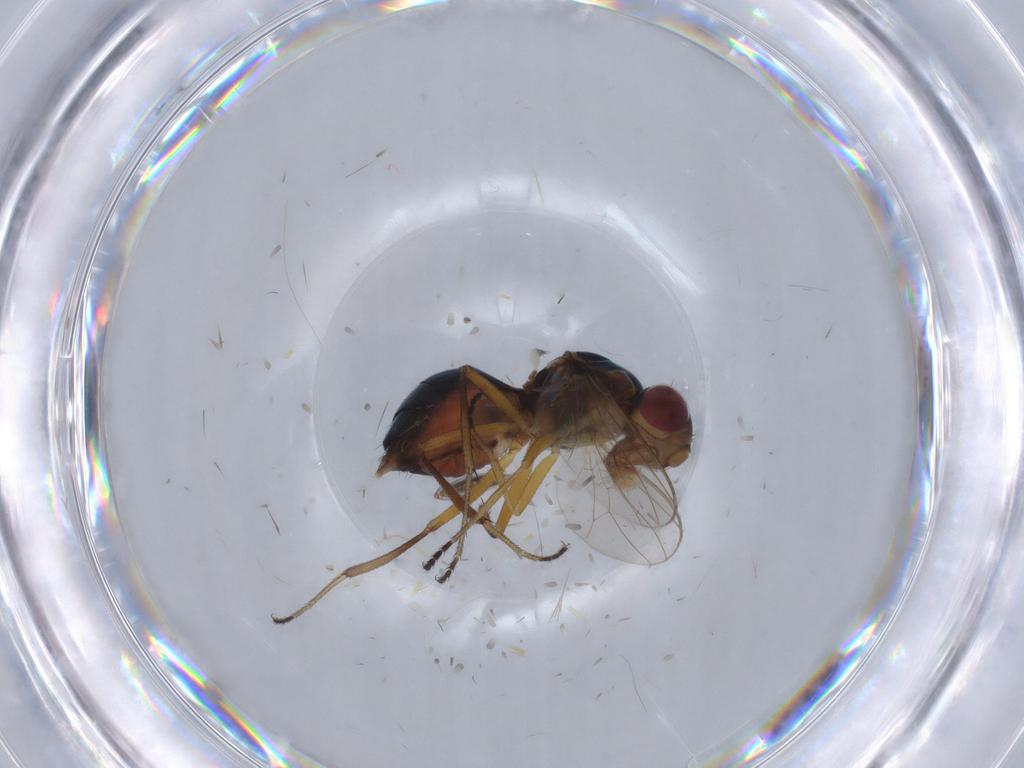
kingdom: Animalia
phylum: Arthropoda
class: Insecta
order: Diptera
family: Sepsidae
